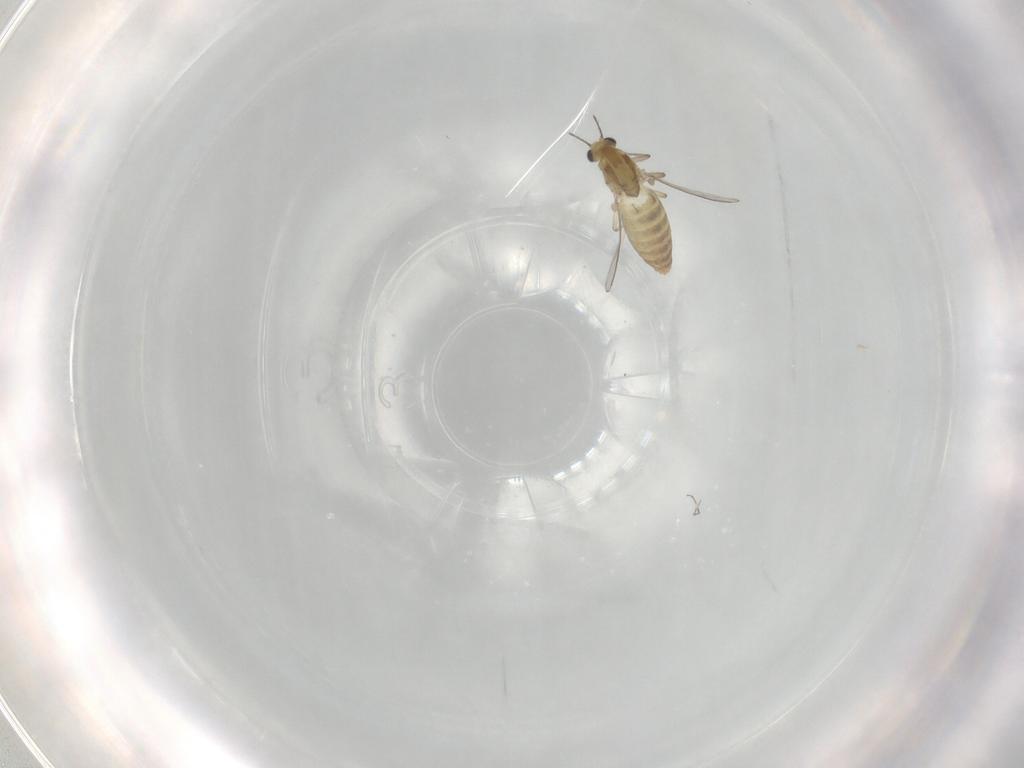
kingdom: Animalia
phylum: Arthropoda
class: Insecta
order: Diptera
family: Chironomidae
